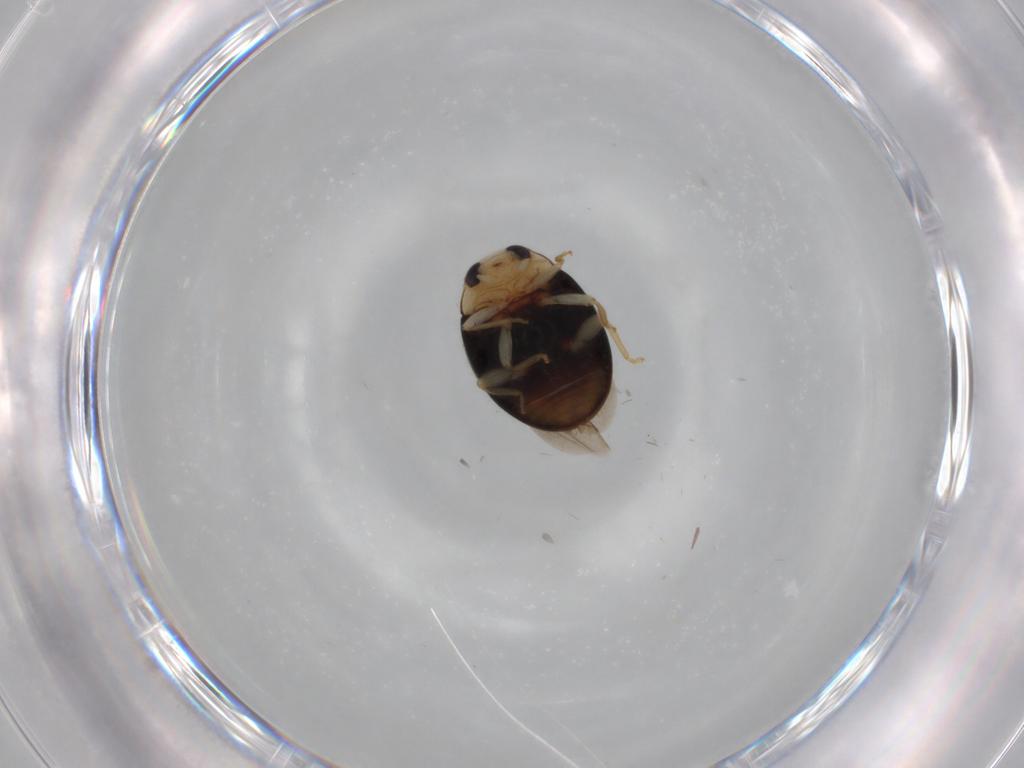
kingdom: Animalia
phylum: Arthropoda
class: Insecta
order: Coleoptera
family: Coccinellidae
